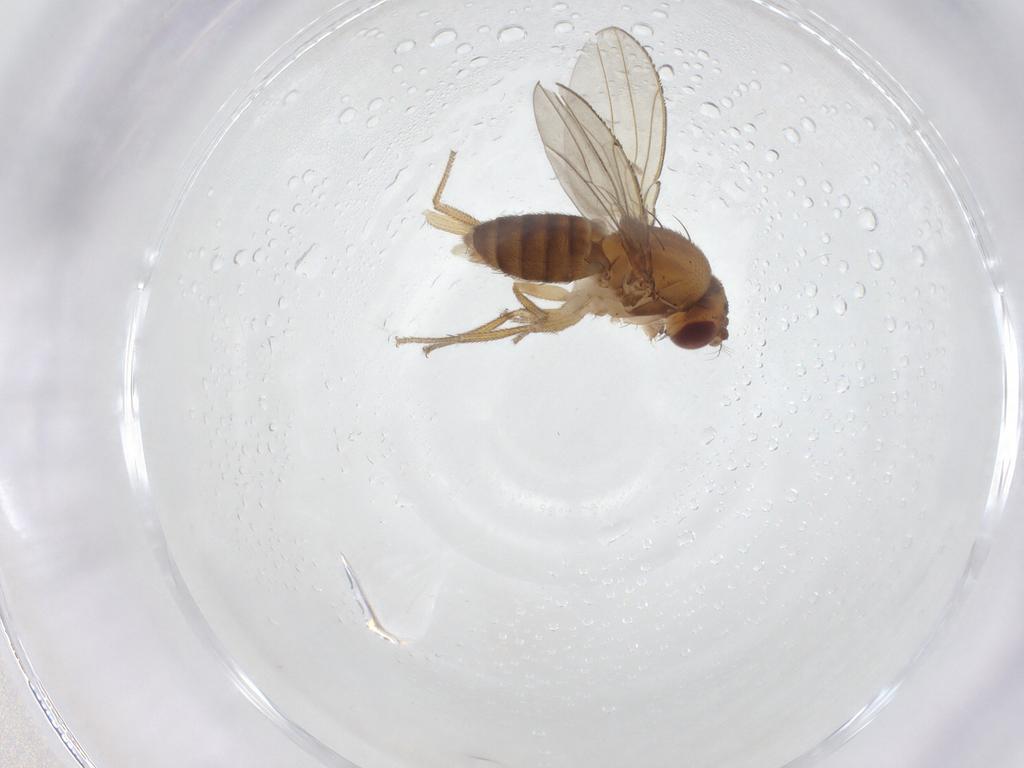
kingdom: Animalia
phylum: Arthropoda
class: Insecta
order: Diptera
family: Drosophilidae
